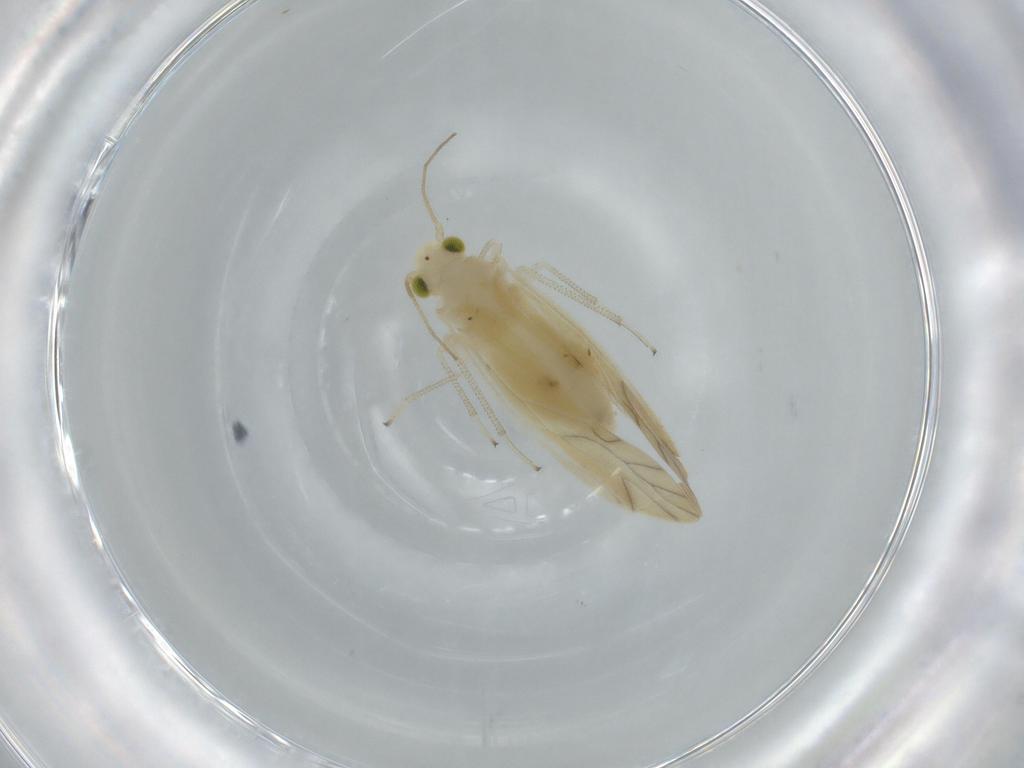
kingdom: Animalia
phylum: Arthropoda
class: Insecta
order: Psocodea
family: Caeciliusidae
